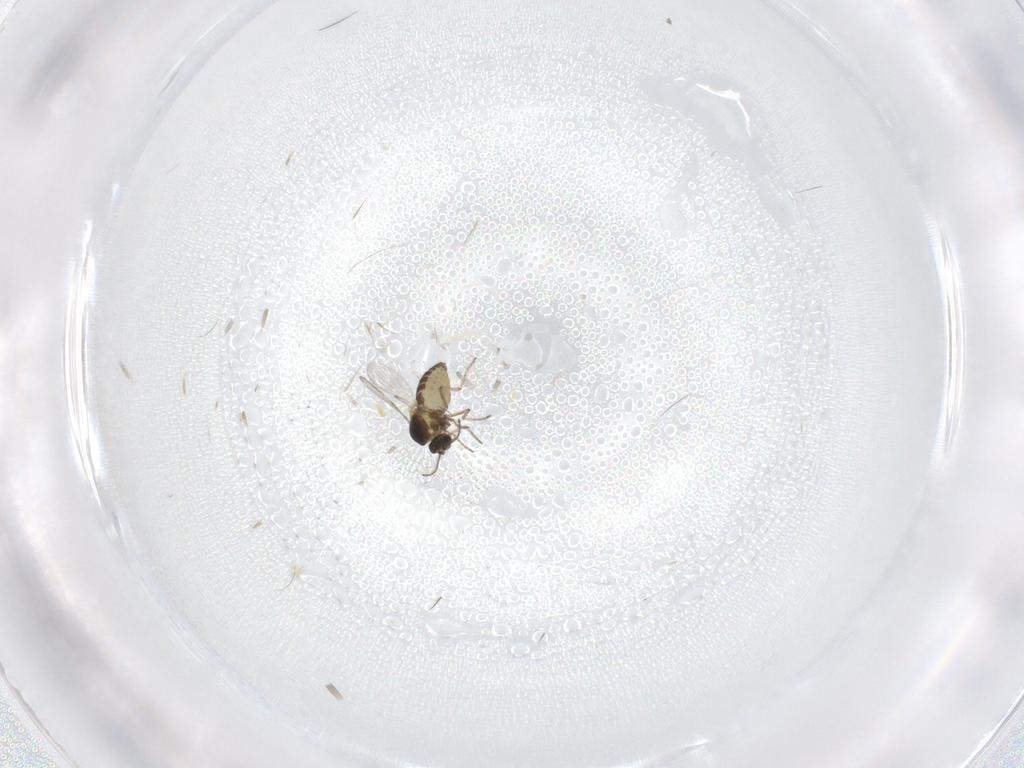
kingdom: Animalia
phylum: Arthropoda
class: Insecta
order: Diptera
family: Ceratopogonidae
